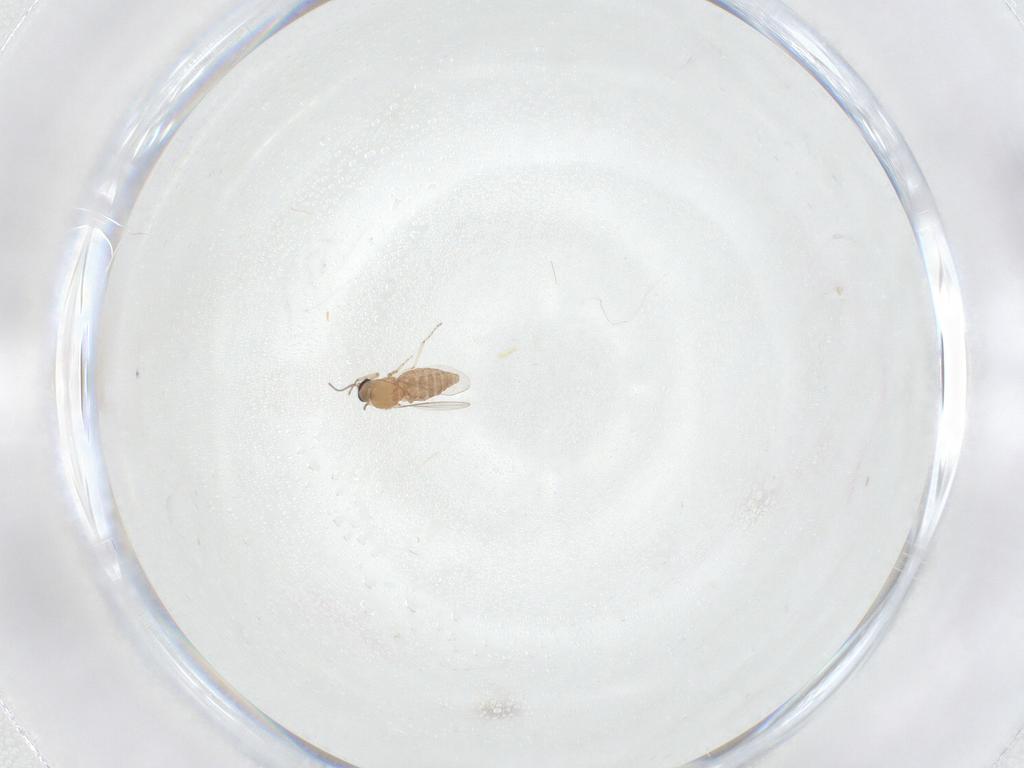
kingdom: Animalia
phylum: Arthropoda
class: Insecta
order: Diptera
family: Ceratopogonidae
